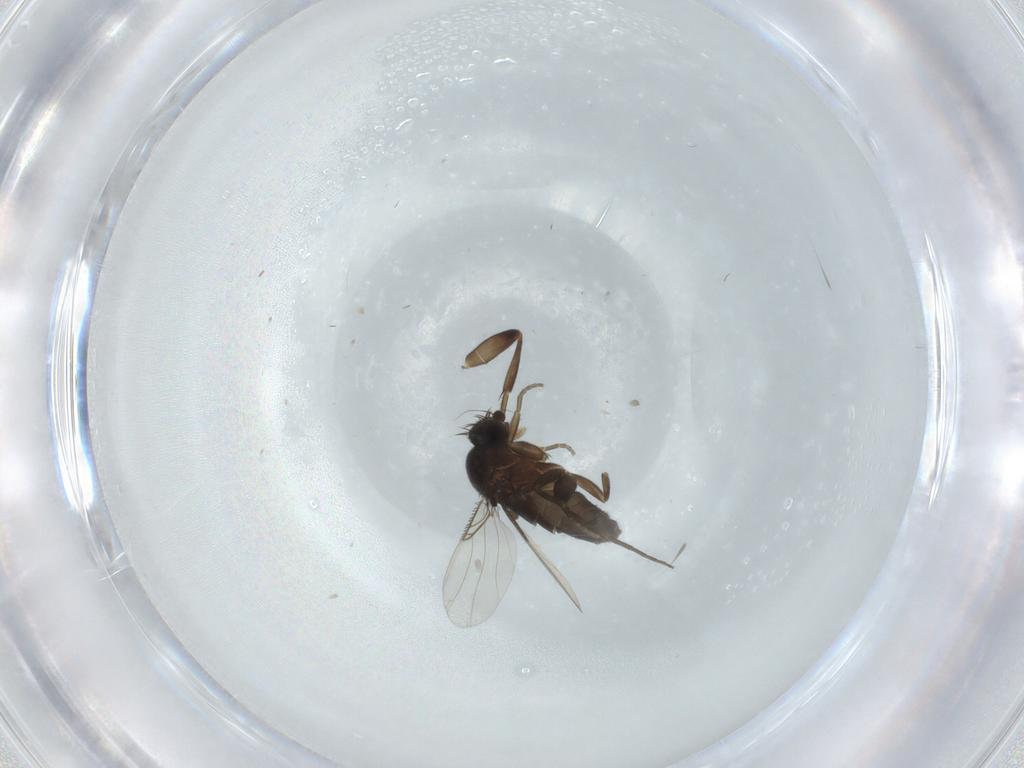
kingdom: Animalia
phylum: Arthropoda
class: Insecta
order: Diptera
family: Phoridae
